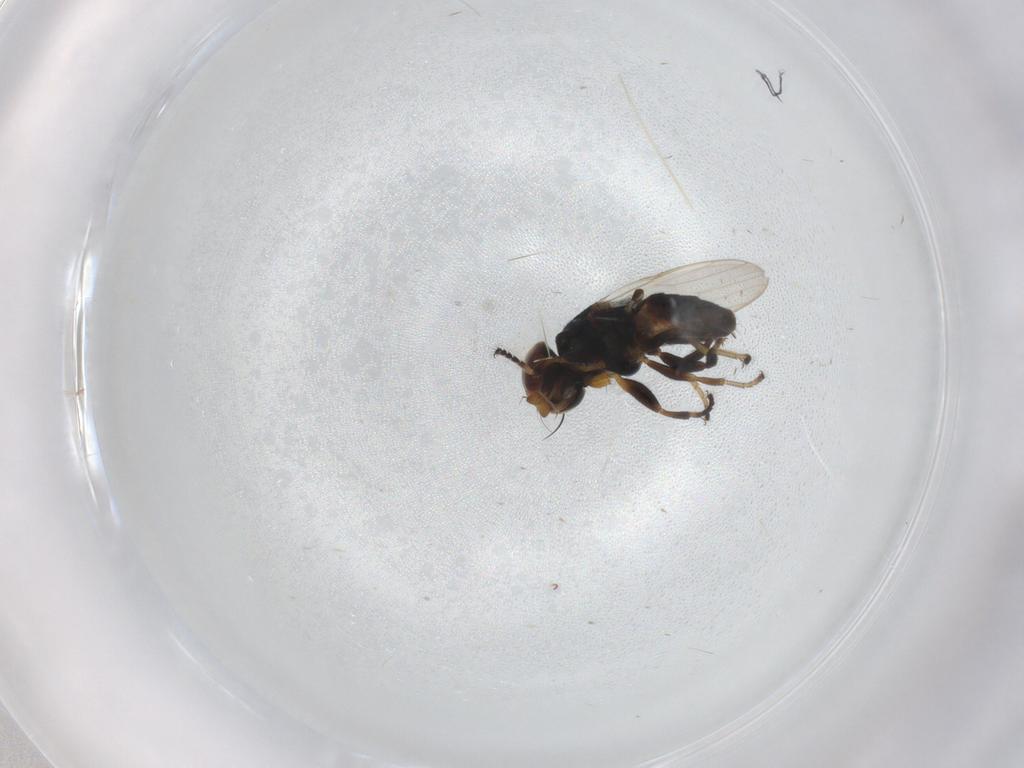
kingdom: Animalia
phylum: Arthropoda
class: Insecta
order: Diptera
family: Chloropidae
